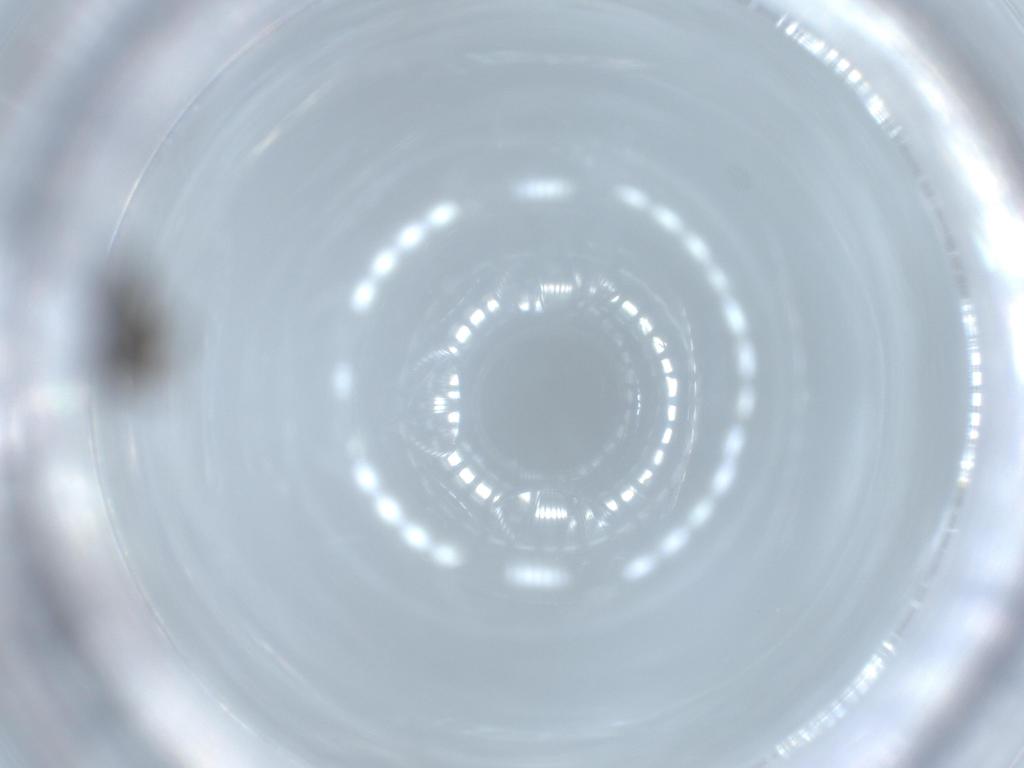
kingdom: Animalia
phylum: Arthropoda
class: Insecta
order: Diptera
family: Sciaridae
